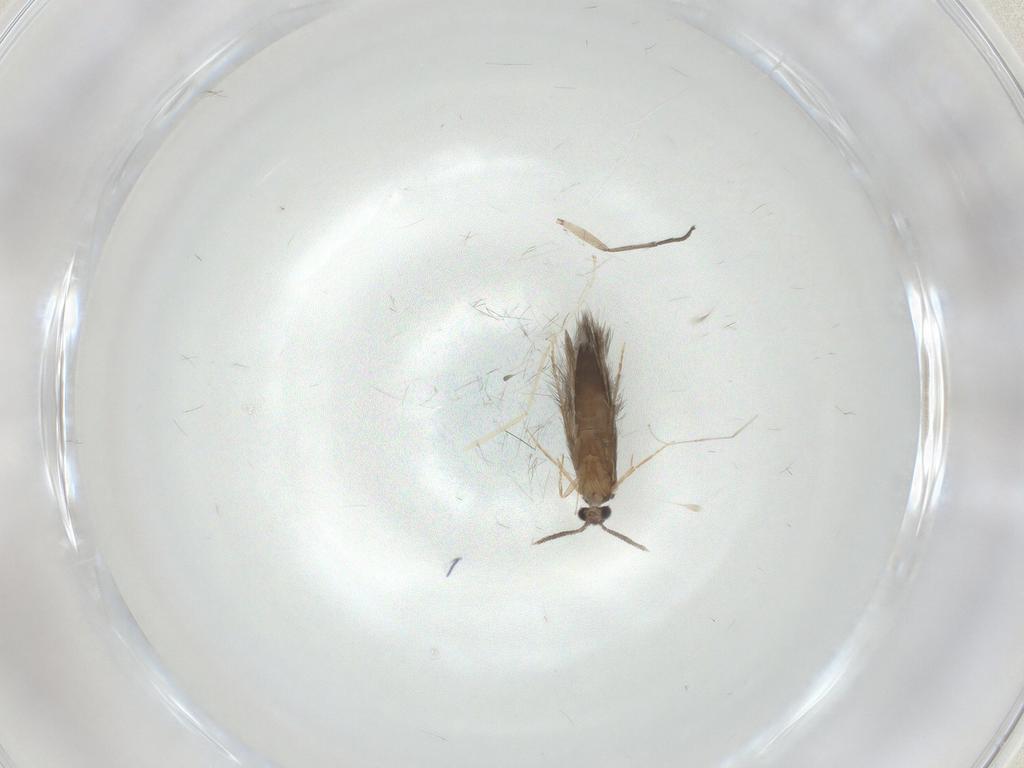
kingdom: Animalia
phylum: Arthropoda
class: Insecta
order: Trichoptera
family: Hydroptilidae
